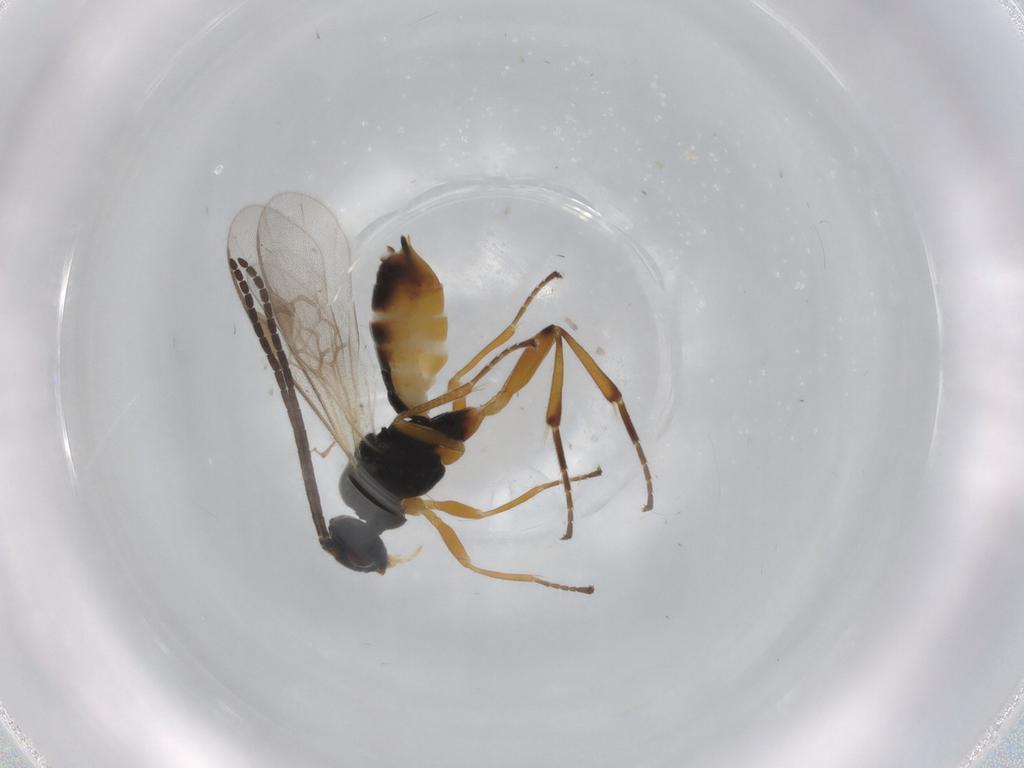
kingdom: Animalia
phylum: Arthropoda
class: Insecta
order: Hymenoptera
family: Braconidae
